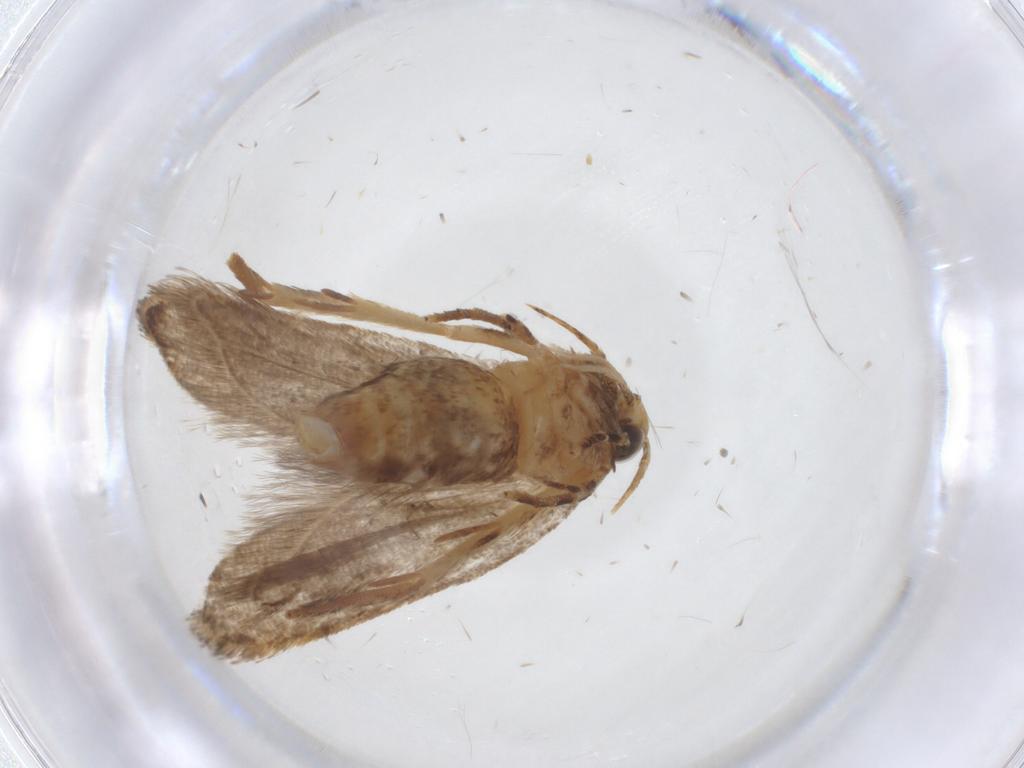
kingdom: Animalia
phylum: Arthropoda
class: Insecta
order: Lepidoptera
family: Oecophoridae
